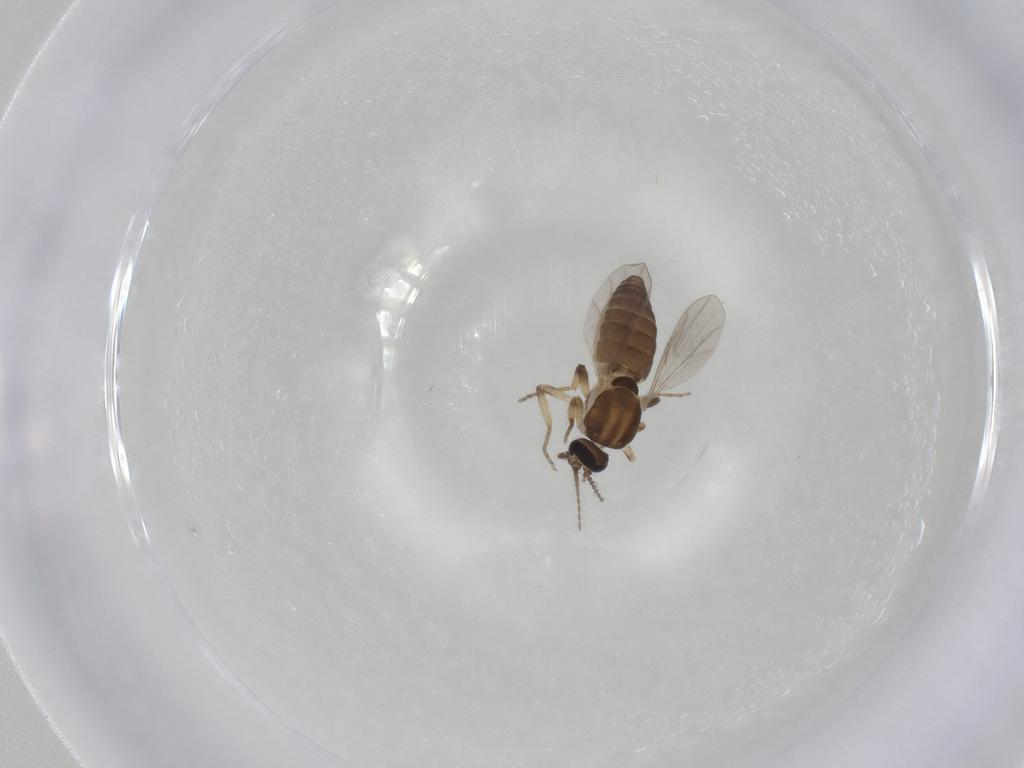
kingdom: Animalia
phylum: Arthropoda
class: Insecta
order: Diptera
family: Ceratopogonidae
